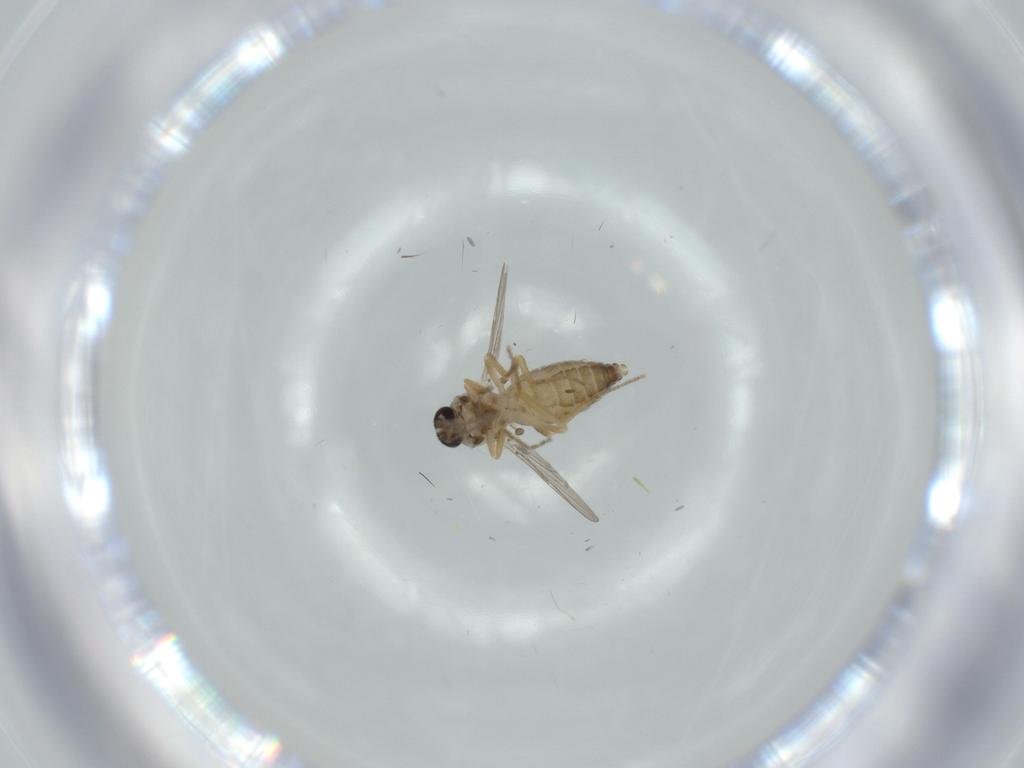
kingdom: Animalia
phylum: Arthropoda
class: Insecta
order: Diptera
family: Ceratopogonidae
